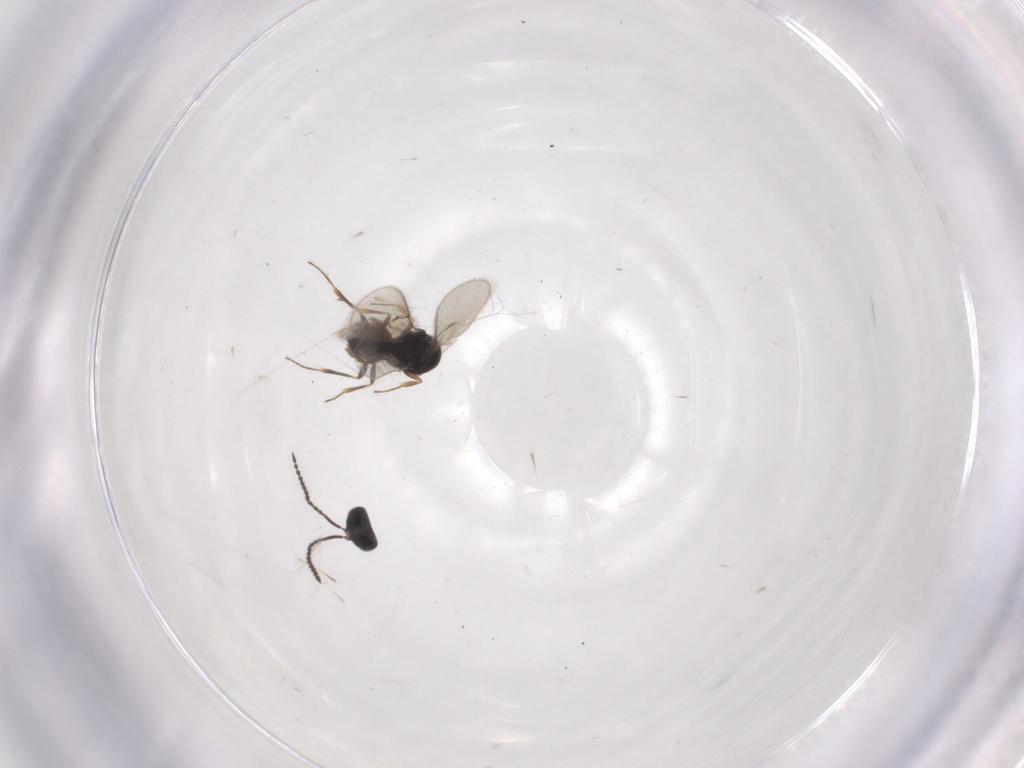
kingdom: Animalia
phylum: Arthropoda
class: Insecta
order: Hymenoptera
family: Scelionidae
